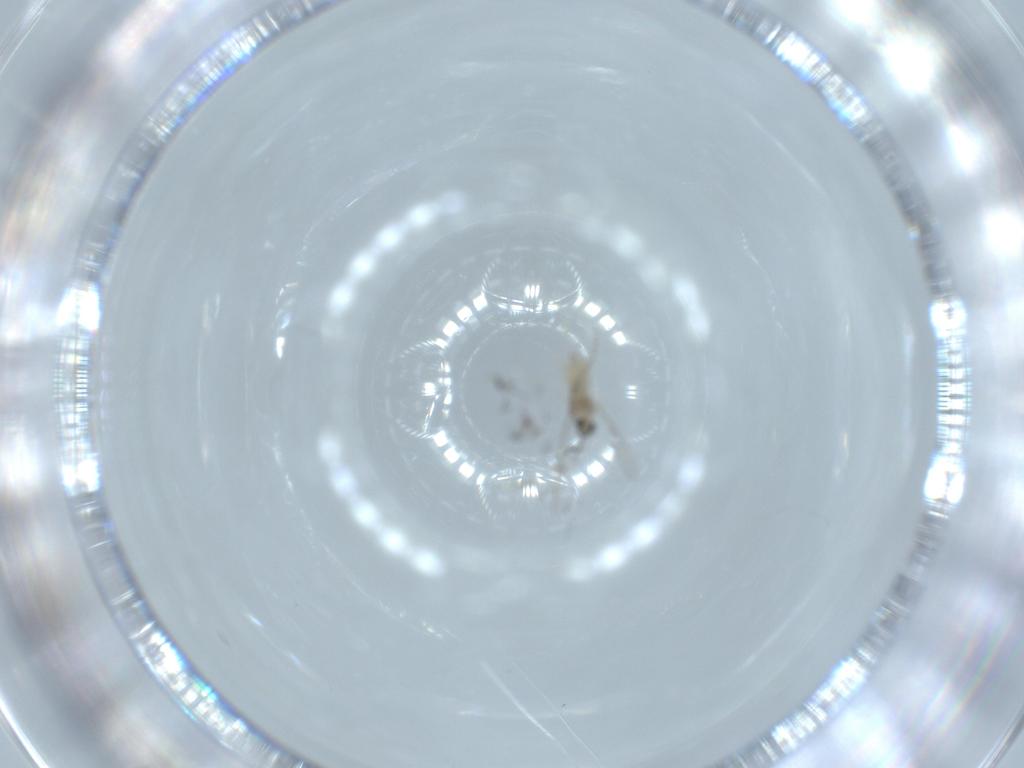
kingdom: Animalia
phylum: Arthropoda
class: Insecta
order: Diptera
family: Cecidomyiidae
